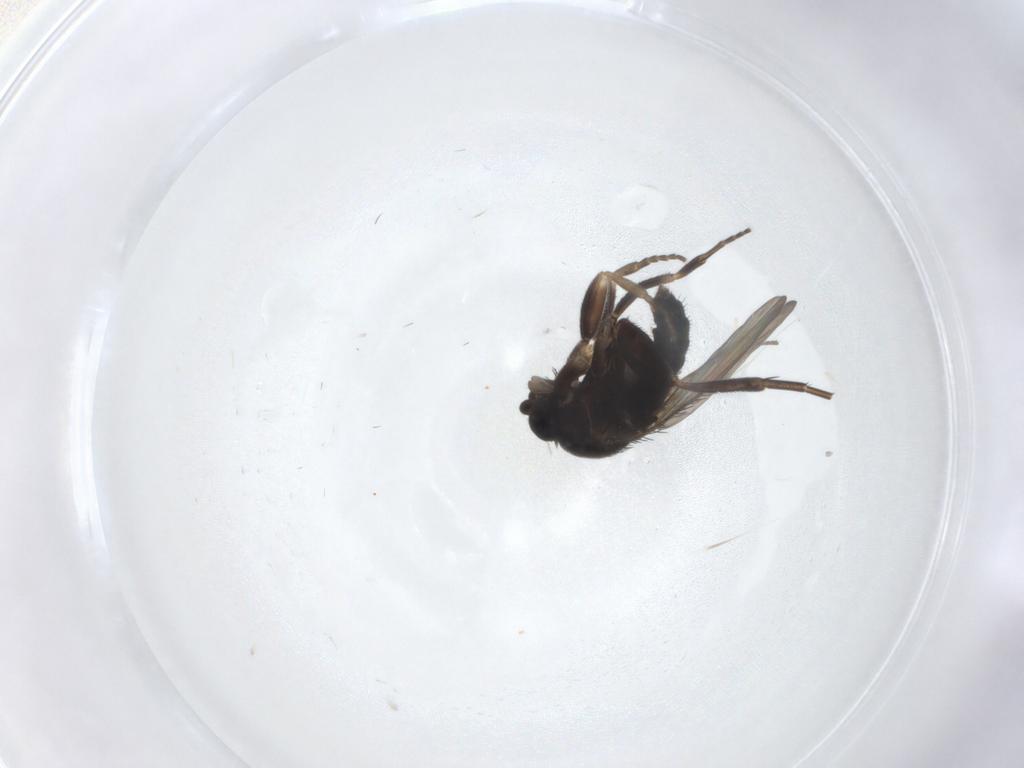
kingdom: Animalia
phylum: Arthropoda
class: Insecta
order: Diptera
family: Phoridae
